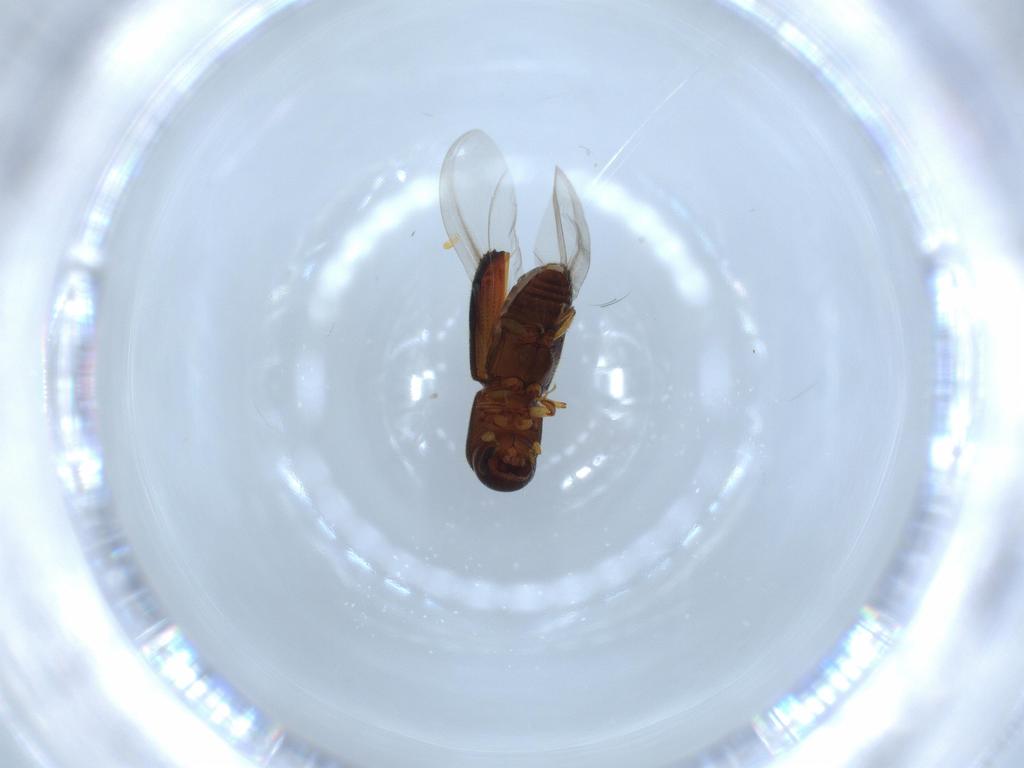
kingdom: Animalia
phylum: Arthropoda
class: Insecta
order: Coleoptera
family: Curculionidae
